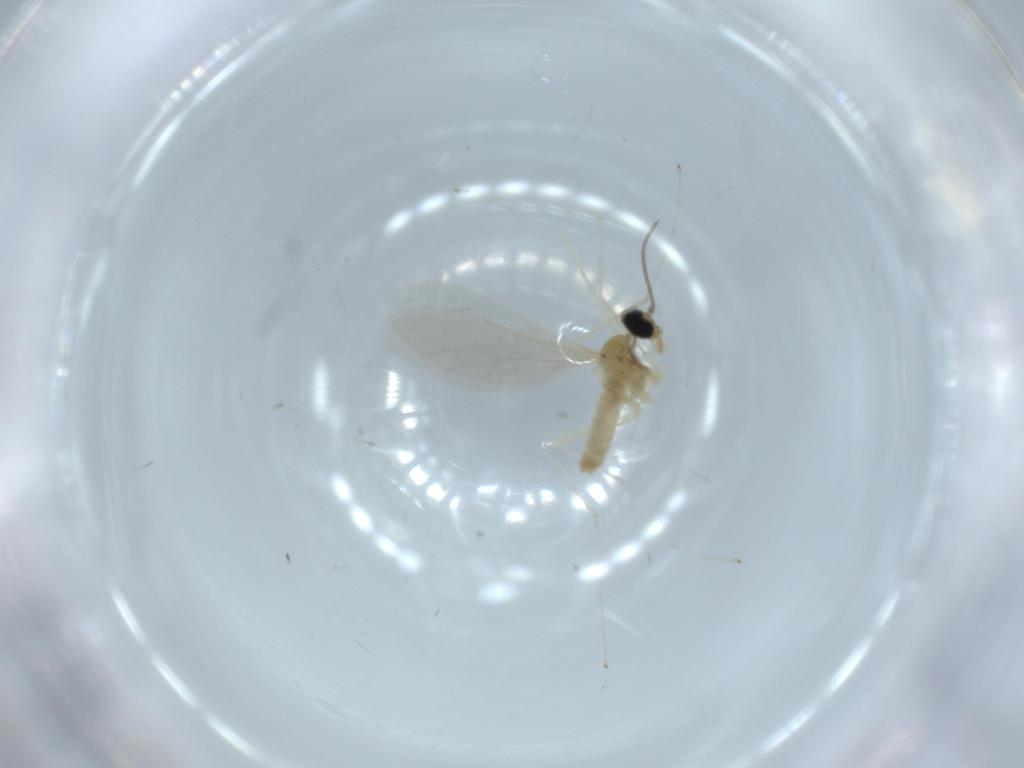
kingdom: Animalia
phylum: Arthropoda
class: Insecta
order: Diptera
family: Cecidomyiidae
